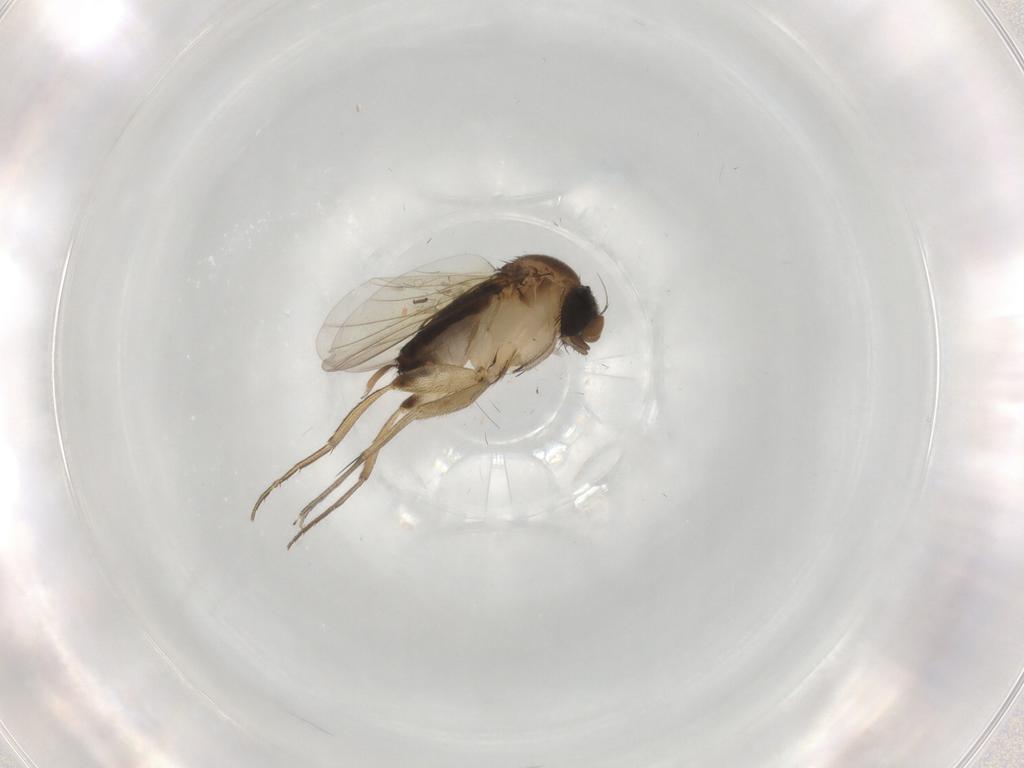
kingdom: Animalia
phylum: Arthropoda
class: Insecta
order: Diptera
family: Phoridae
